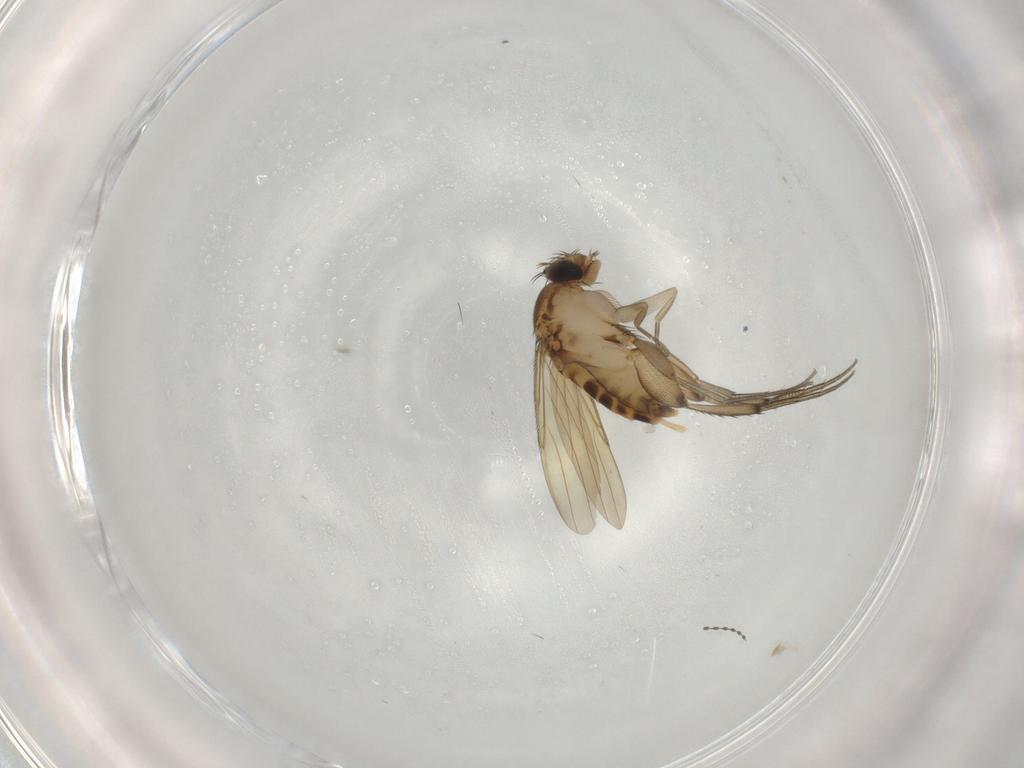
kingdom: Animalia
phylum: Arthropoda
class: Insecta
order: Diptera
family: Phoridae
